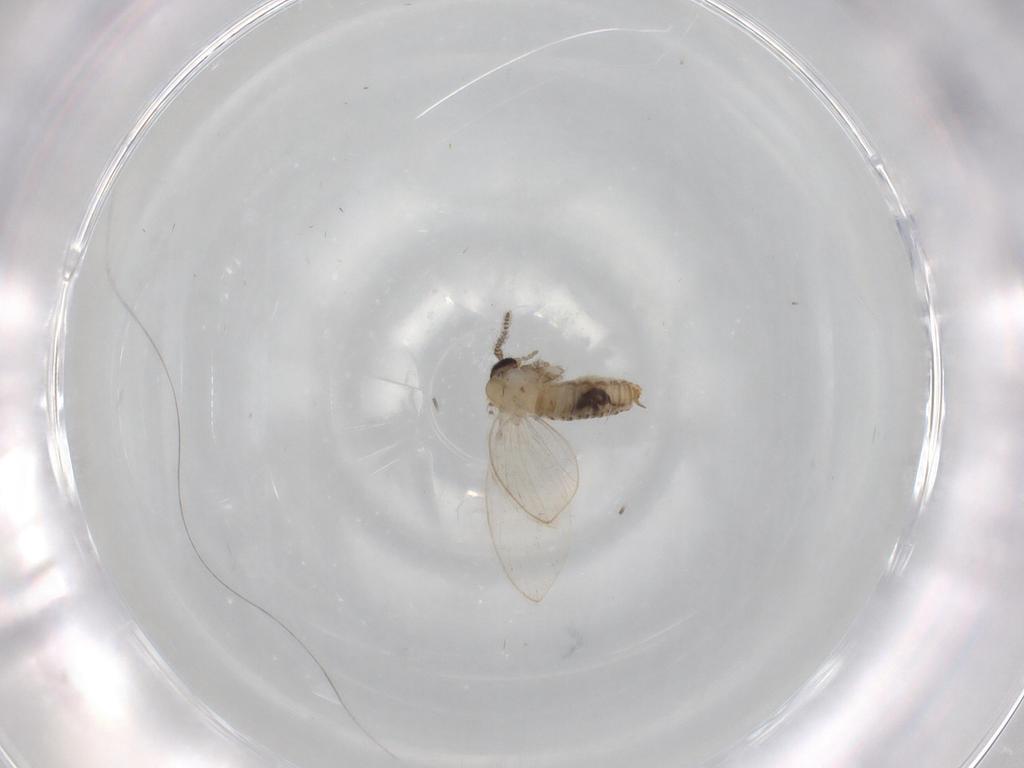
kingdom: Animalia
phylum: Arthropoda
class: Insecta
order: Diptera
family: Psychodidae
